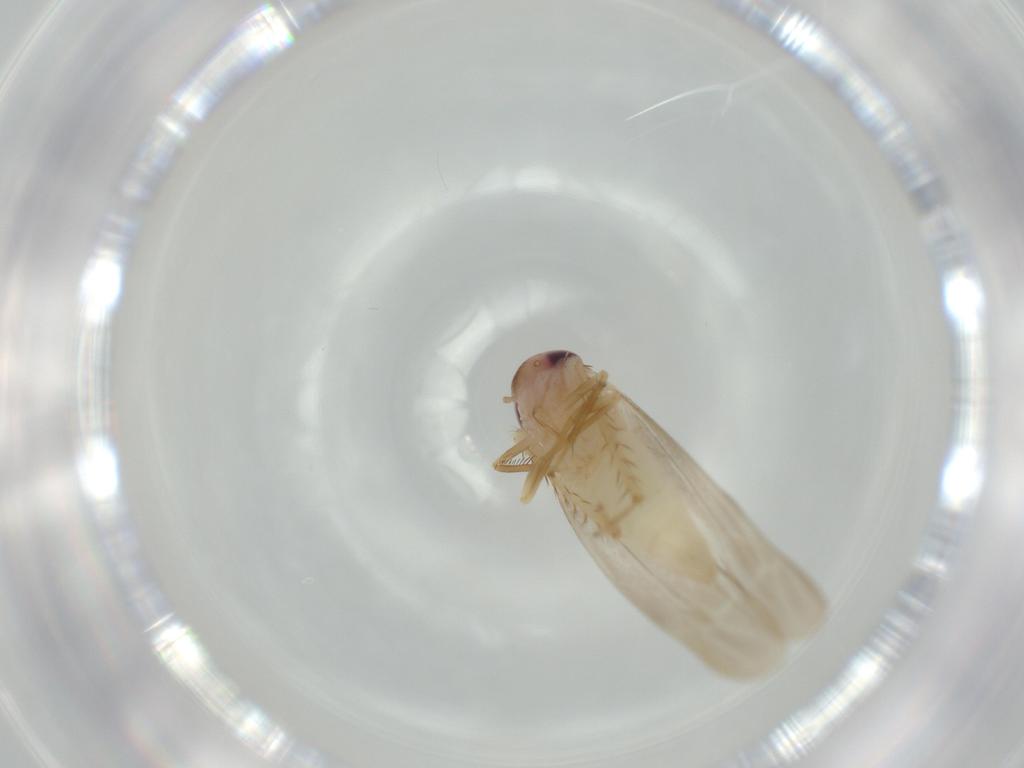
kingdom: Animalia
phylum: Arthropoda
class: Insecta
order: Hemiptera
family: Cicadellidae
